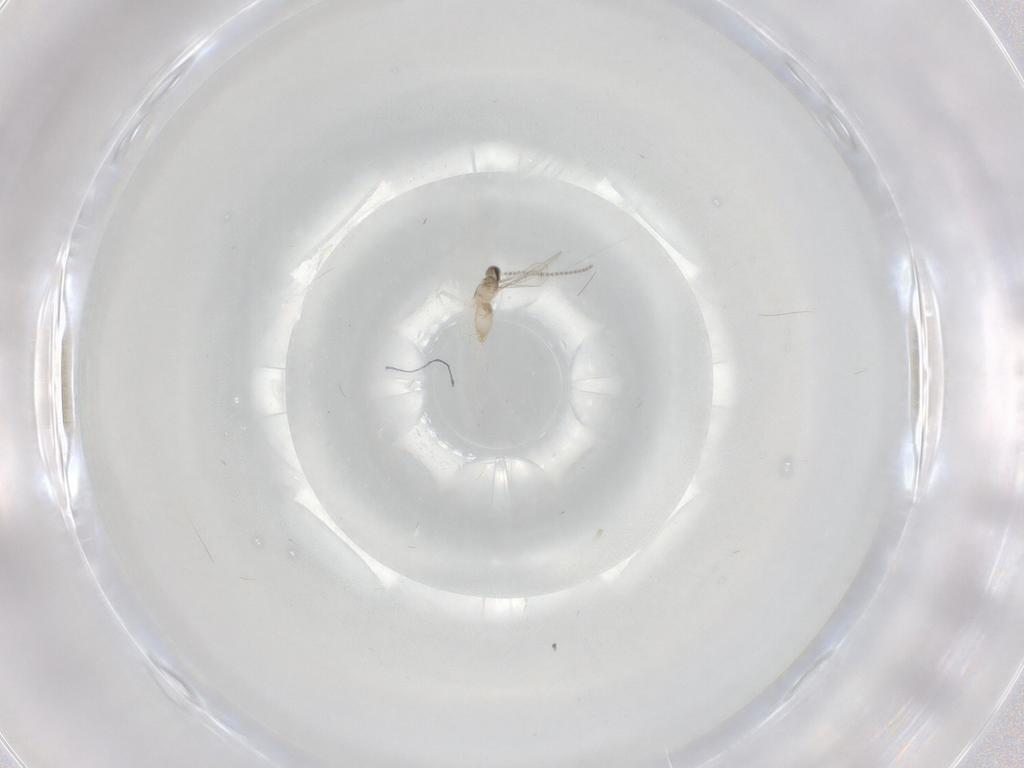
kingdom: Animalia
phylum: Arthropoda
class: Insecta
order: Diptera
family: Cecidomyiidae
